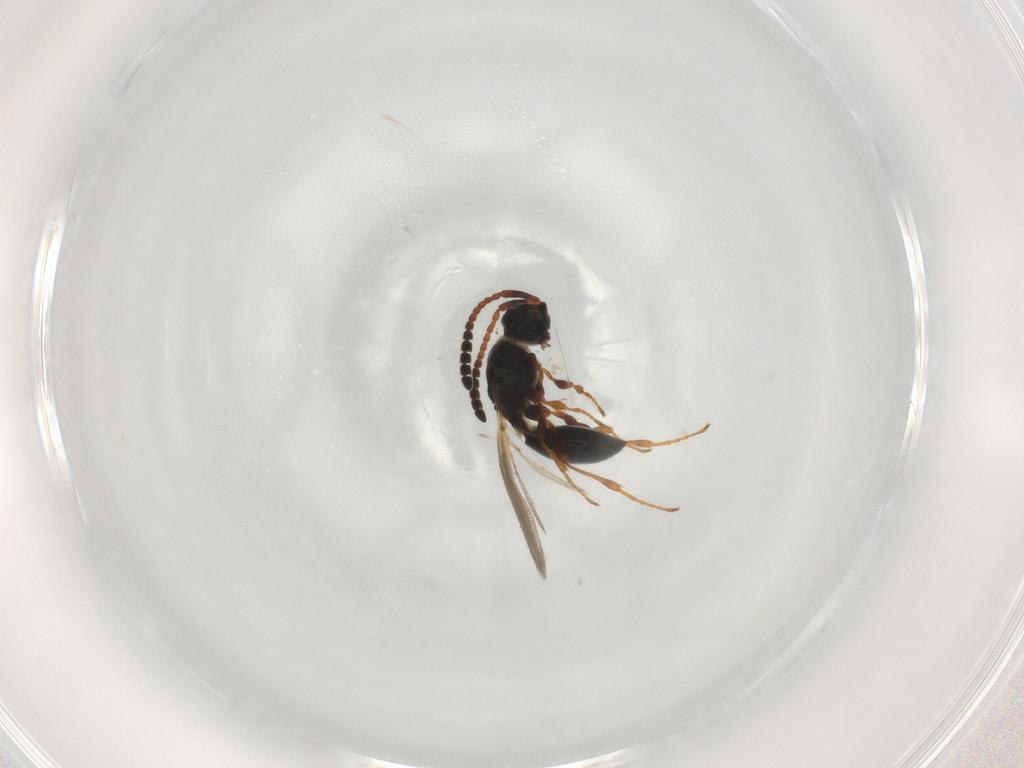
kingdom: Animalia
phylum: Arthropoda
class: Insecta
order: Hymenoptera
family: Diapriidae
